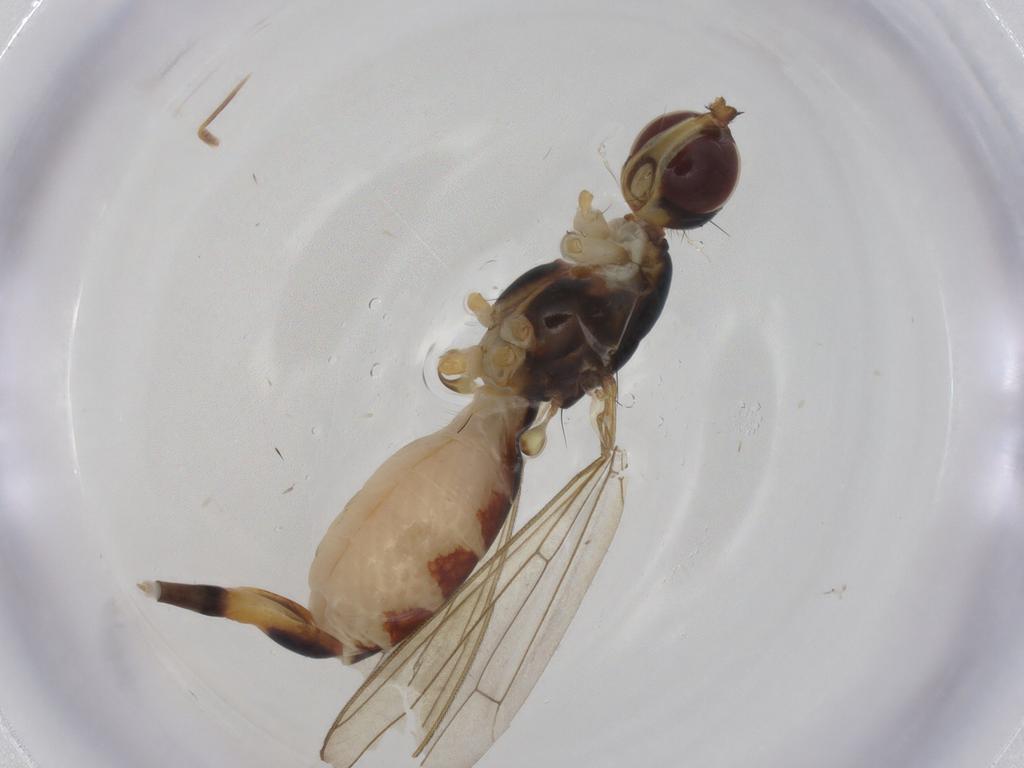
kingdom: Animalia
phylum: Arthropoda
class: Insecta
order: Diptera
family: Micropezidae
